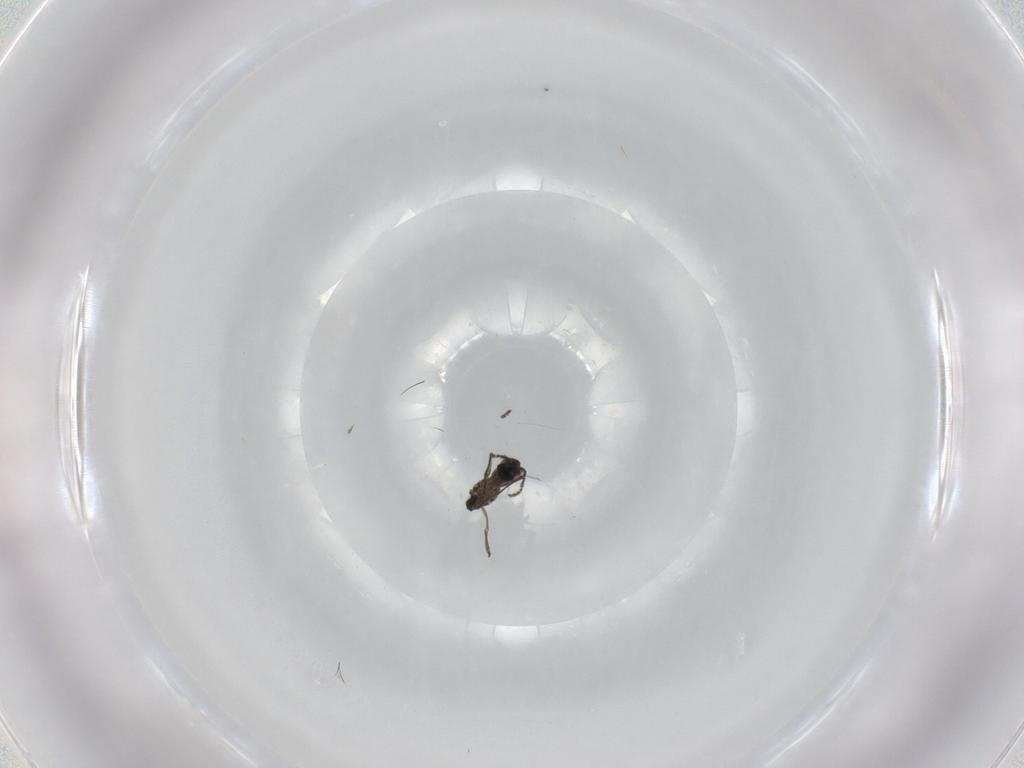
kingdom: Animalia
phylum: Arthropoda
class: Insecta
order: Diptera
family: Sciaridae
